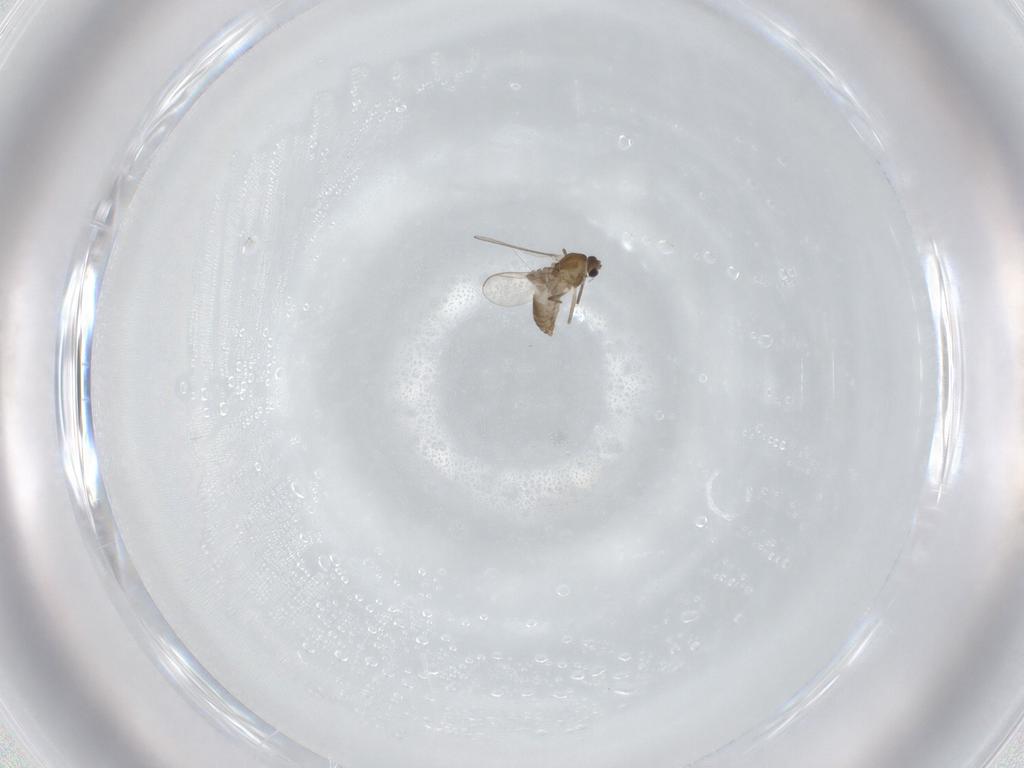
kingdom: Animalia
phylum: Arthropoda
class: Insecta
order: Diptera
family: Chironomidae
